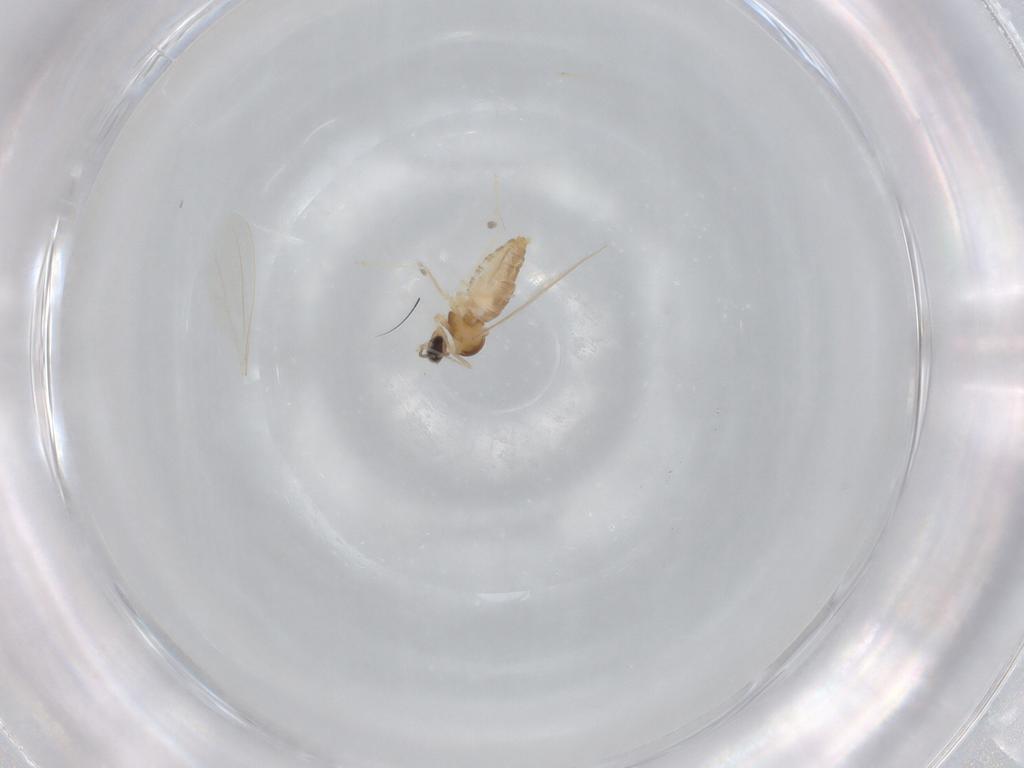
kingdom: Animalia
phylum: Arthropoda
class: Insecta
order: Diptera
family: Cecidomyiidae
